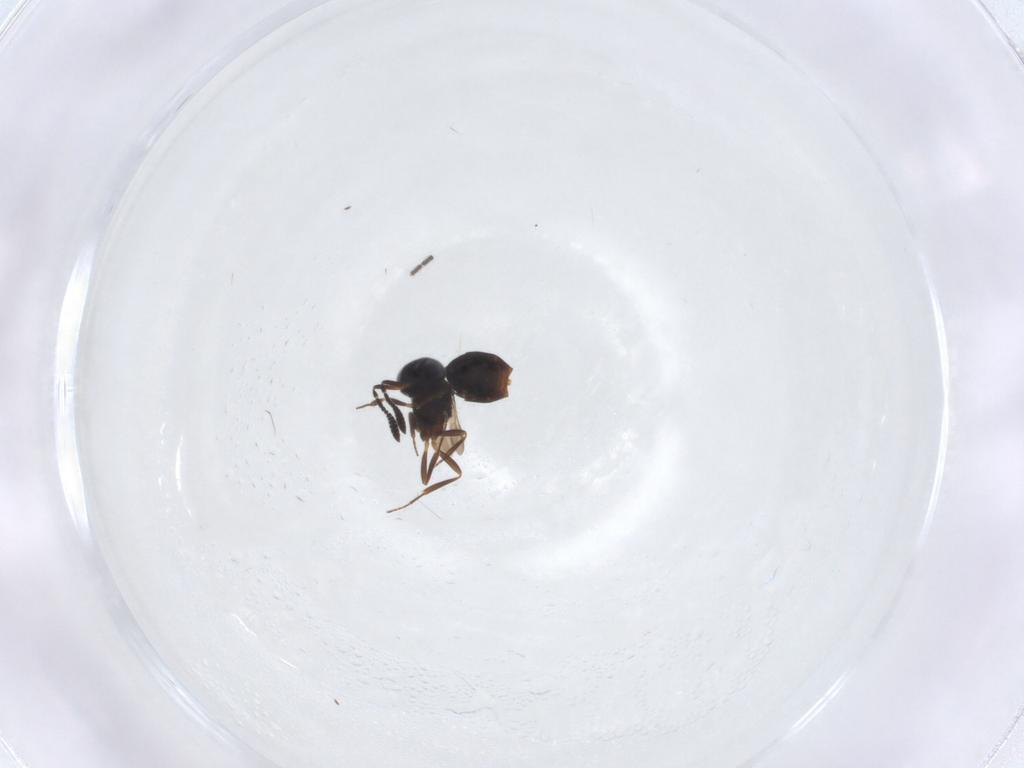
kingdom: Animalia
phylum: Arthropoda
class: Insecta
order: Hymenoptera
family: Scelionidae
